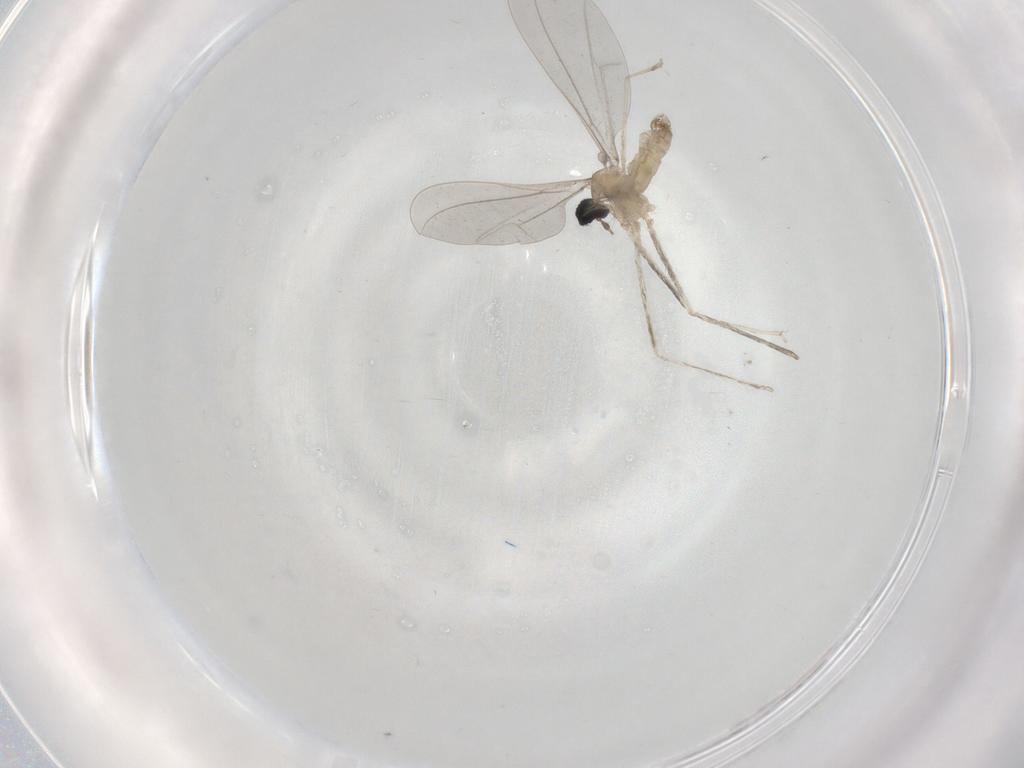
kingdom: Animalia
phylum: Arthropoda
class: Insecta
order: Diptera
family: Cecidomyiidae
